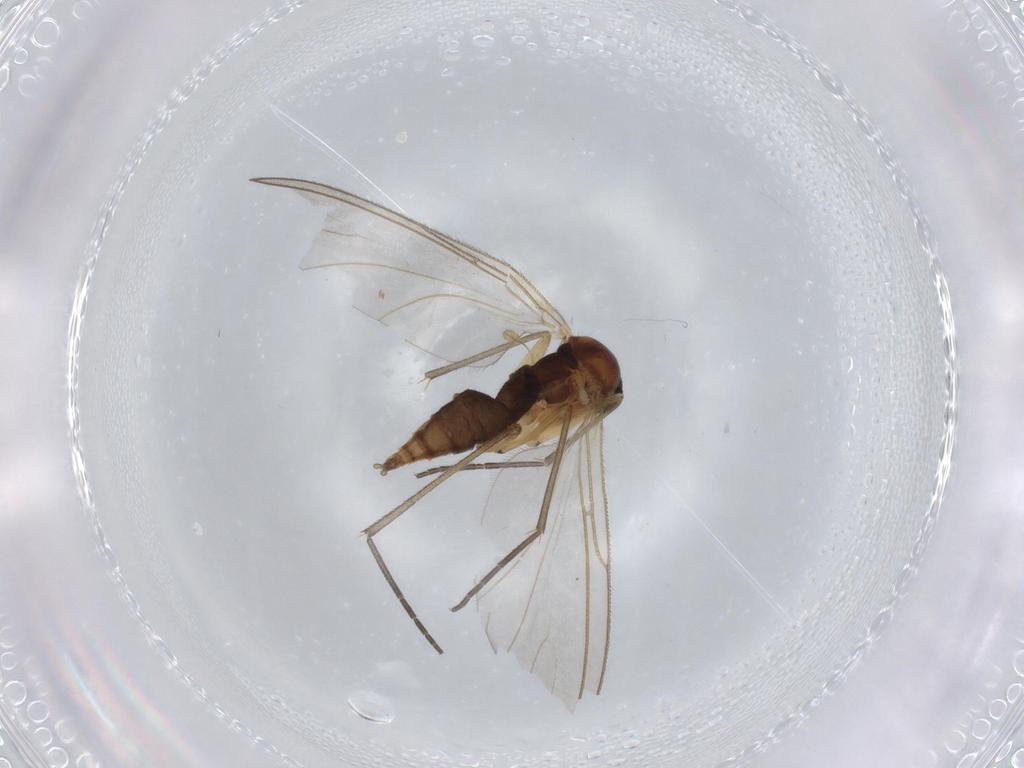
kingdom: Animalia
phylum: Arthropoda
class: Insecta
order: Diptera
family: Sciaridae
